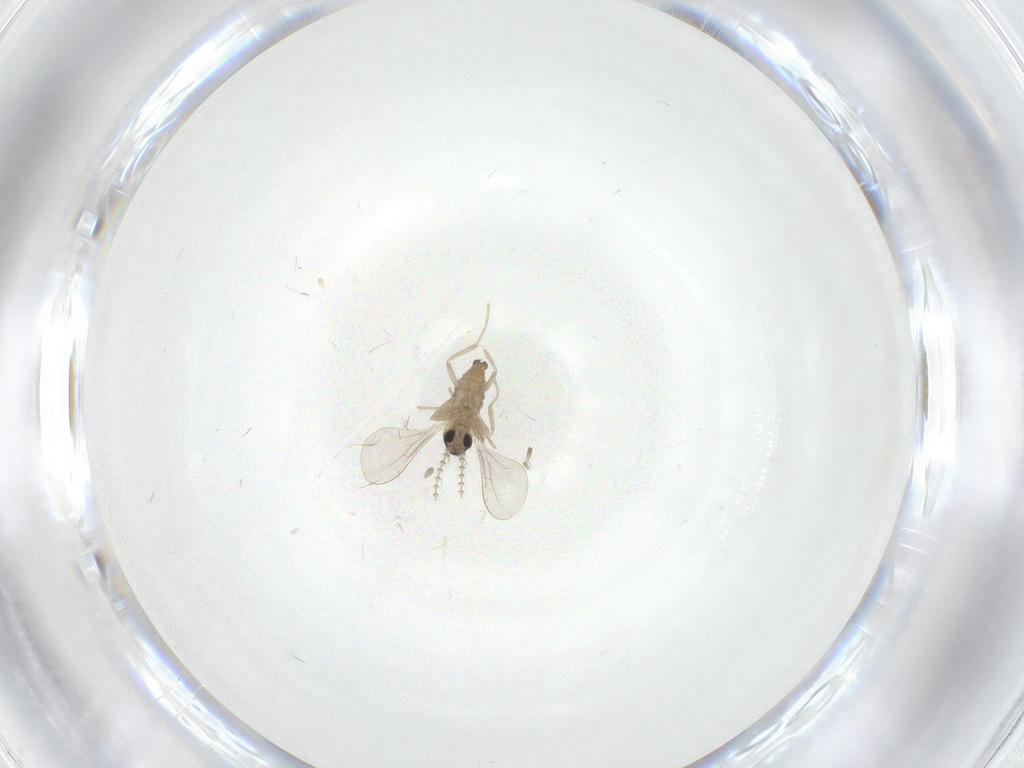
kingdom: Animalia
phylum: Arthropoda
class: Insecta
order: Diptera
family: Cecidomyiidae
